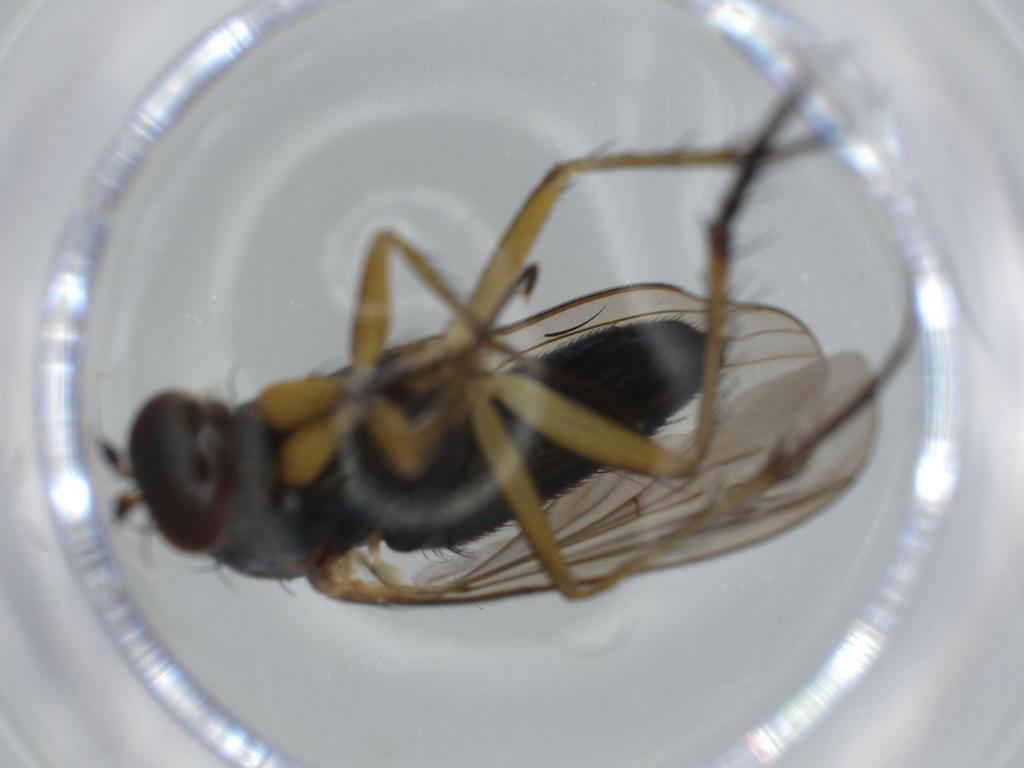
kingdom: Animalia
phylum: Arthropoda
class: Insecta
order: Diptera
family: Dolichopodidae
